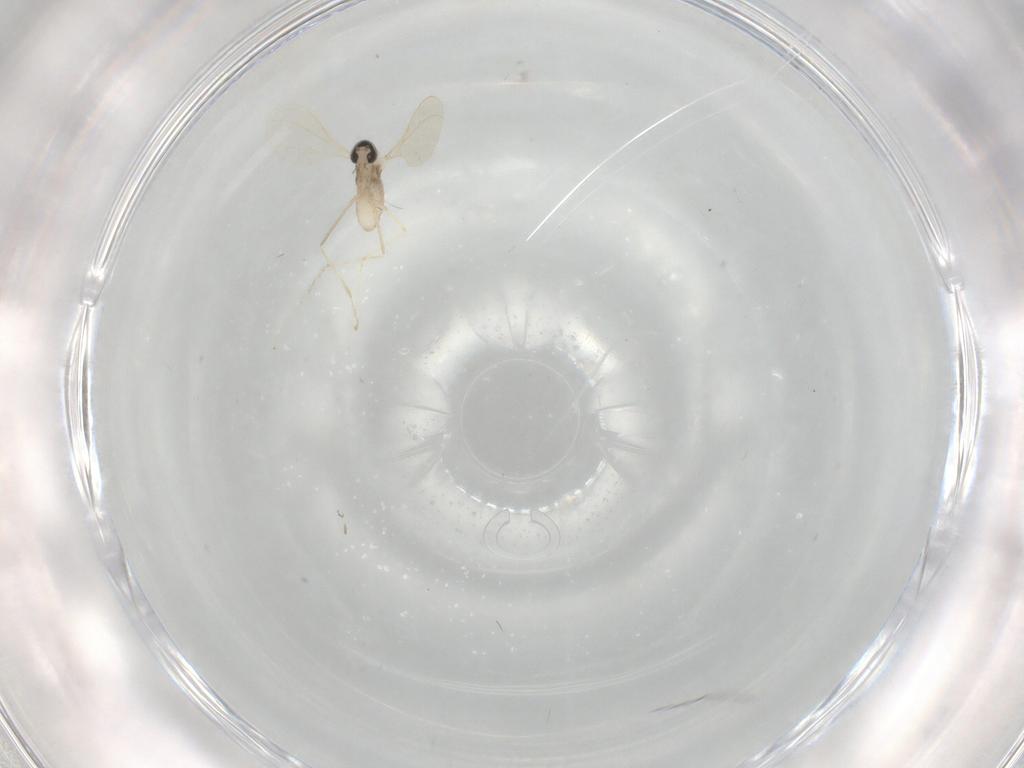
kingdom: Animalia
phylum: Arthropoda
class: Insecta
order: Diptera
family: Cecidomyiidae
